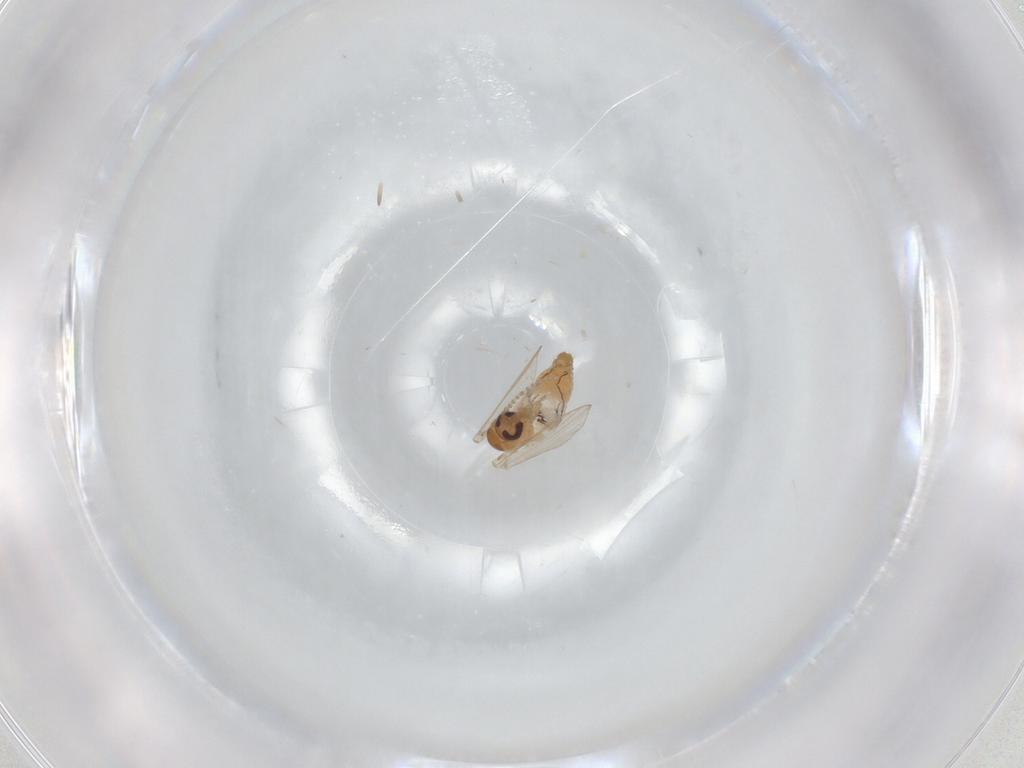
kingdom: Animalia
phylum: Arthropoda
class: Insecta
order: Diptera
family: Psychodidae
